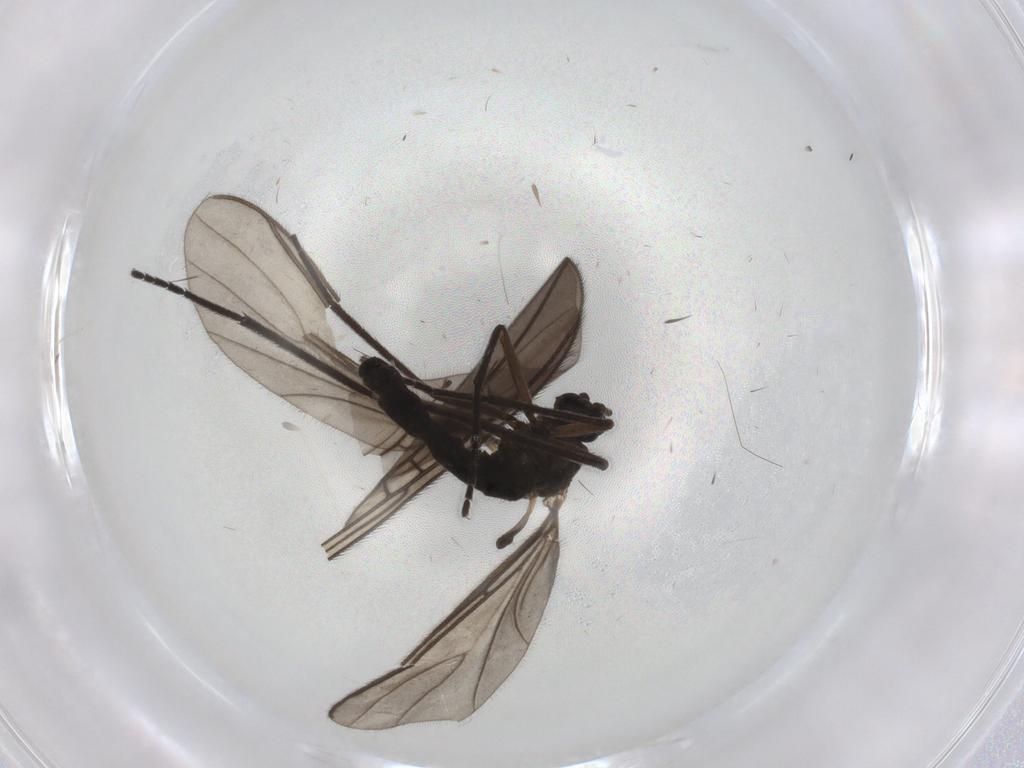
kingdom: Animalia
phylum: Arthropoda
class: Insecta
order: Diptera
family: Sciaridae
